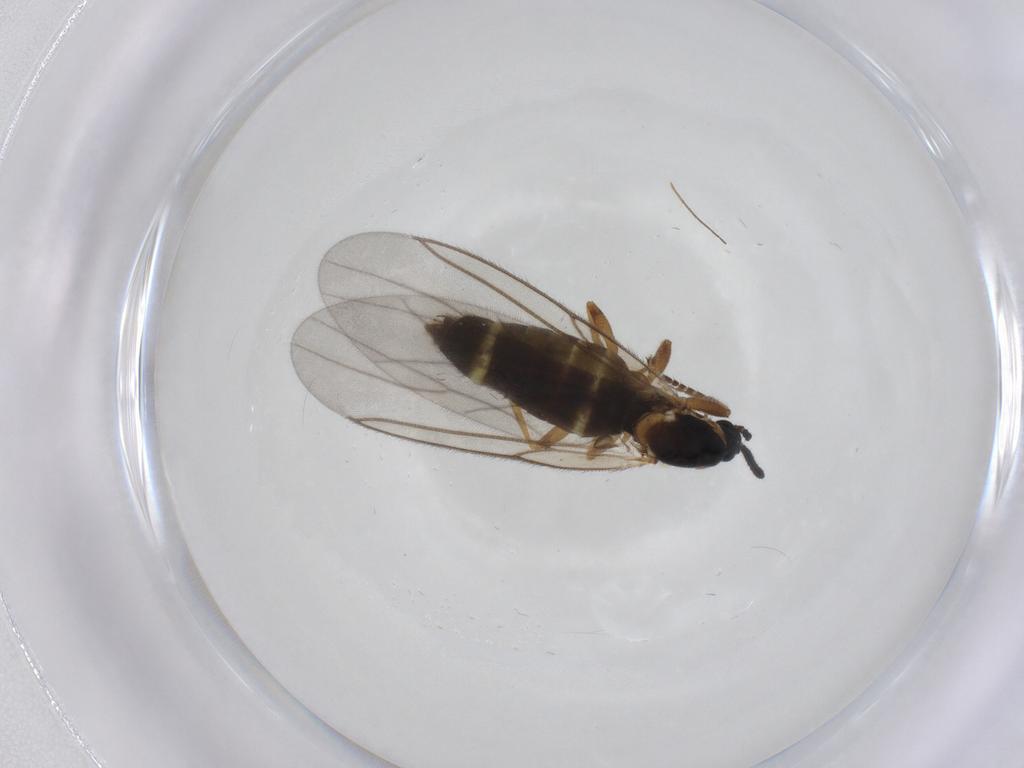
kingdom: Animalia
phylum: Arthropoda
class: Insecta
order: Diptera
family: Scatopsidae
